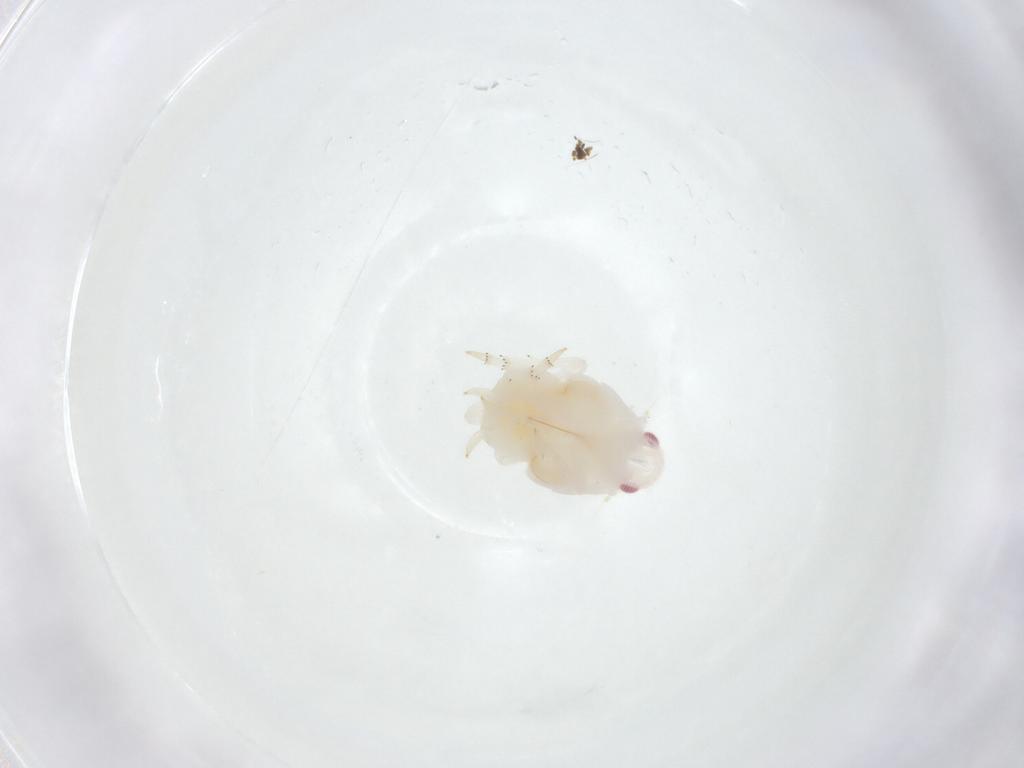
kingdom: Animalia
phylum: Arthropoda
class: Insecta
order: Hemiptera
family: Flatidae
